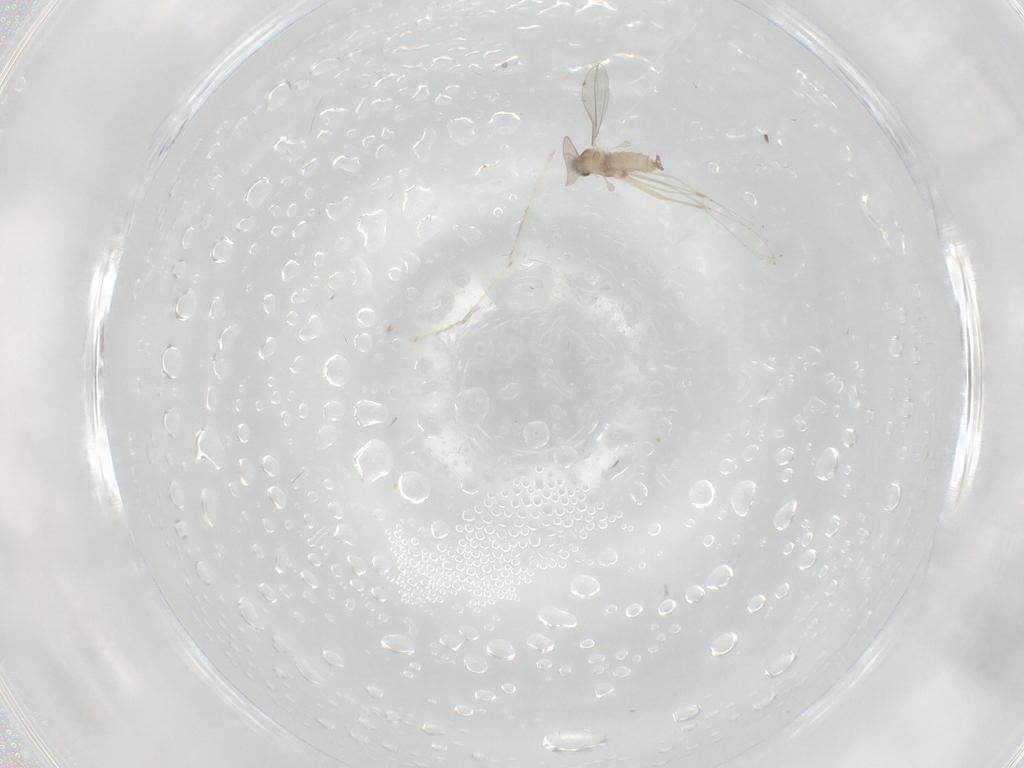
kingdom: Animalia
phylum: Arthropoda
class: Insecta
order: Diptera
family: Cecidomyiidae
